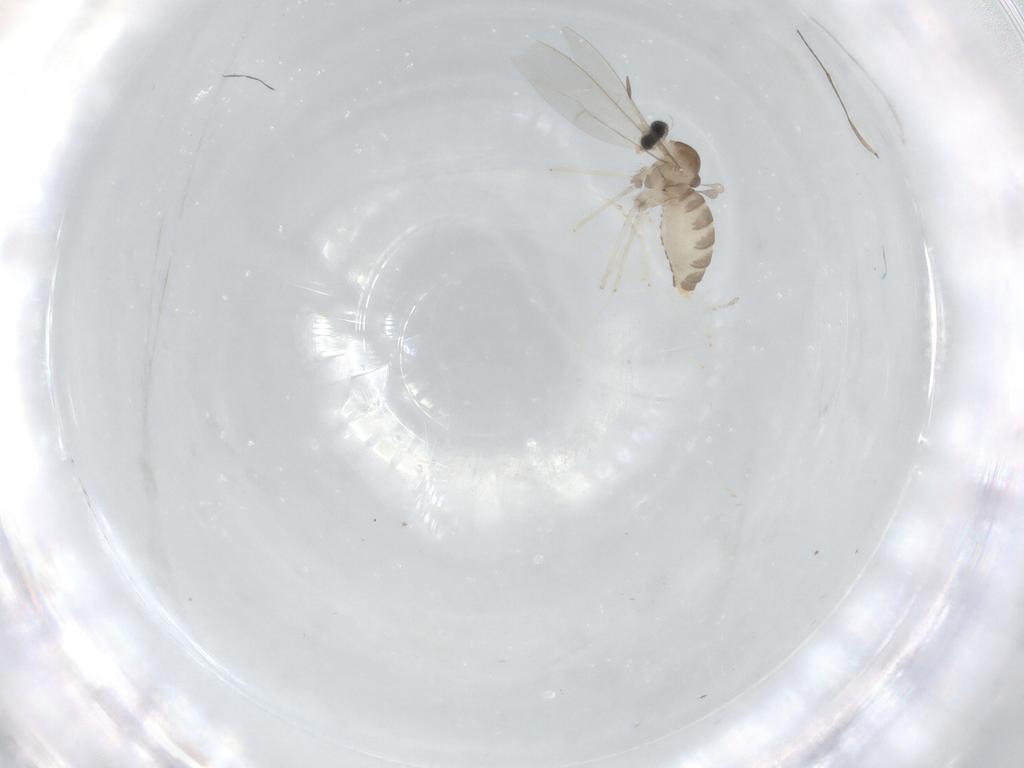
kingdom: Animalia
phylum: Arthropoda
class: Insecta
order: Diptera
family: Cecidomyiidae
